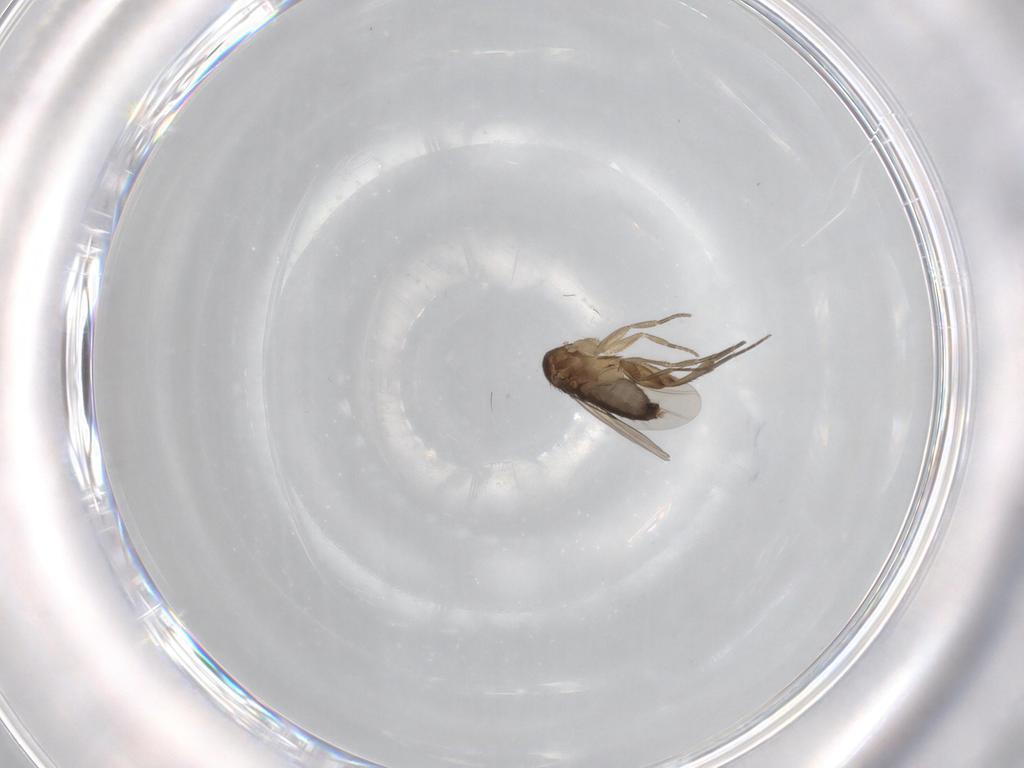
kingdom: Animalia
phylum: Arthropoda
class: Insecta
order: Diptera
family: Phoridae
